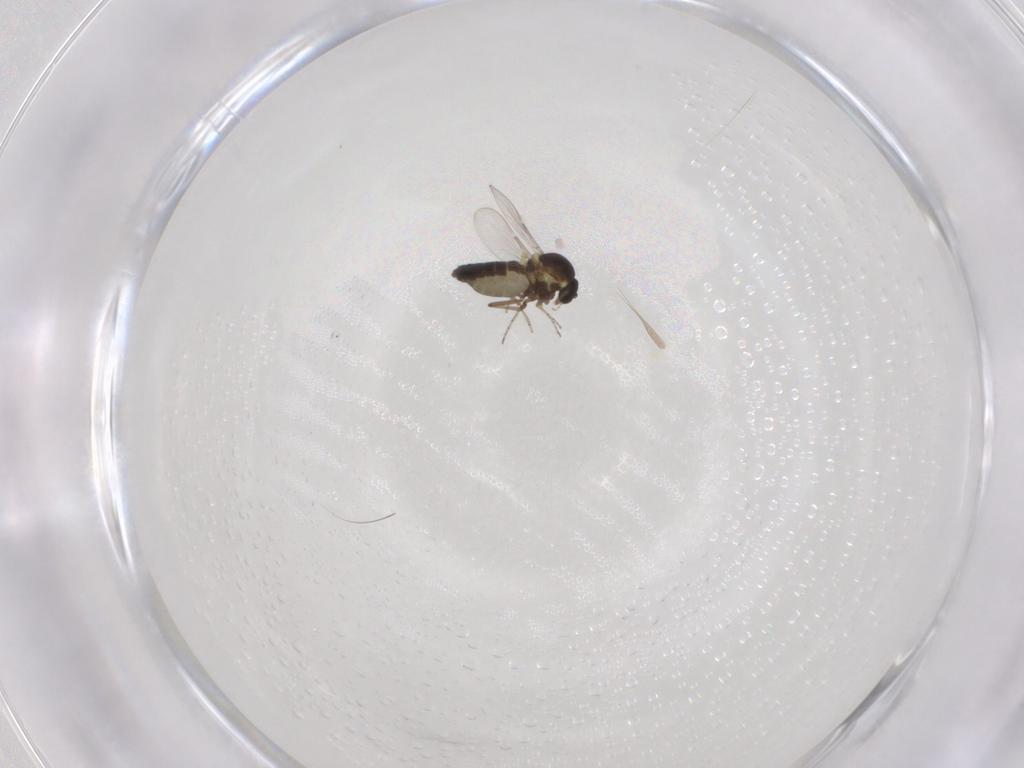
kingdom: Animalia
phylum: Arthropoda
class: Insecta
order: Diptera
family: Ceratopogonidae
